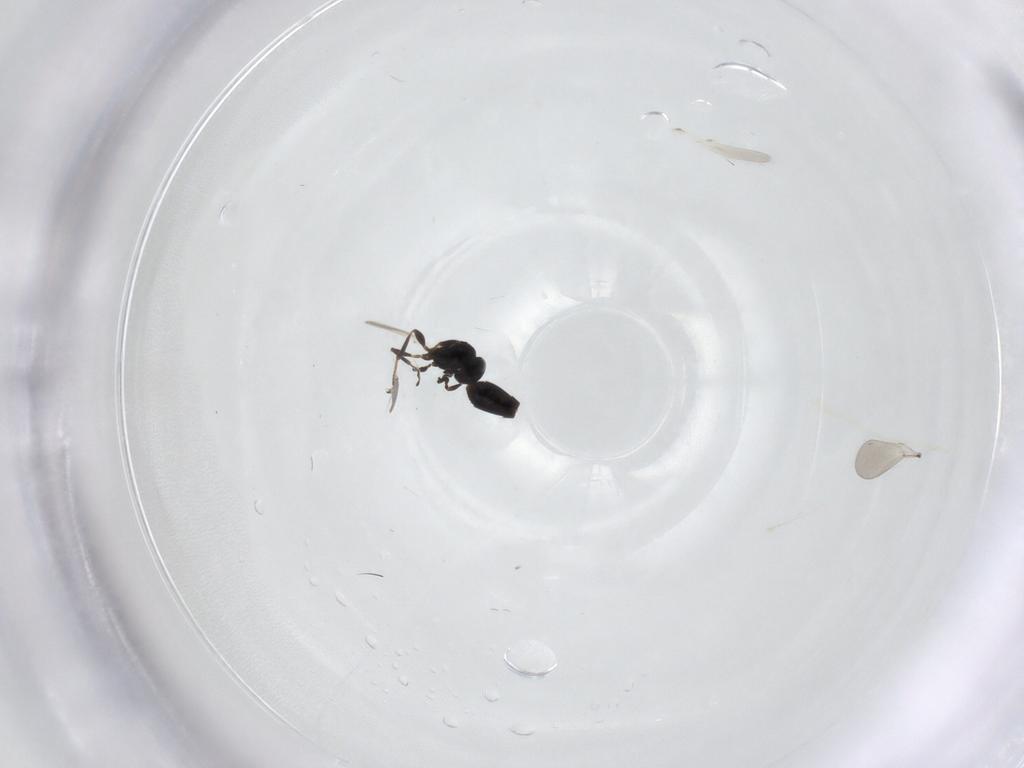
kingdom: Animalia
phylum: Arthropoda
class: Insecta
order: Hymenoptera
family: Platygastridae
